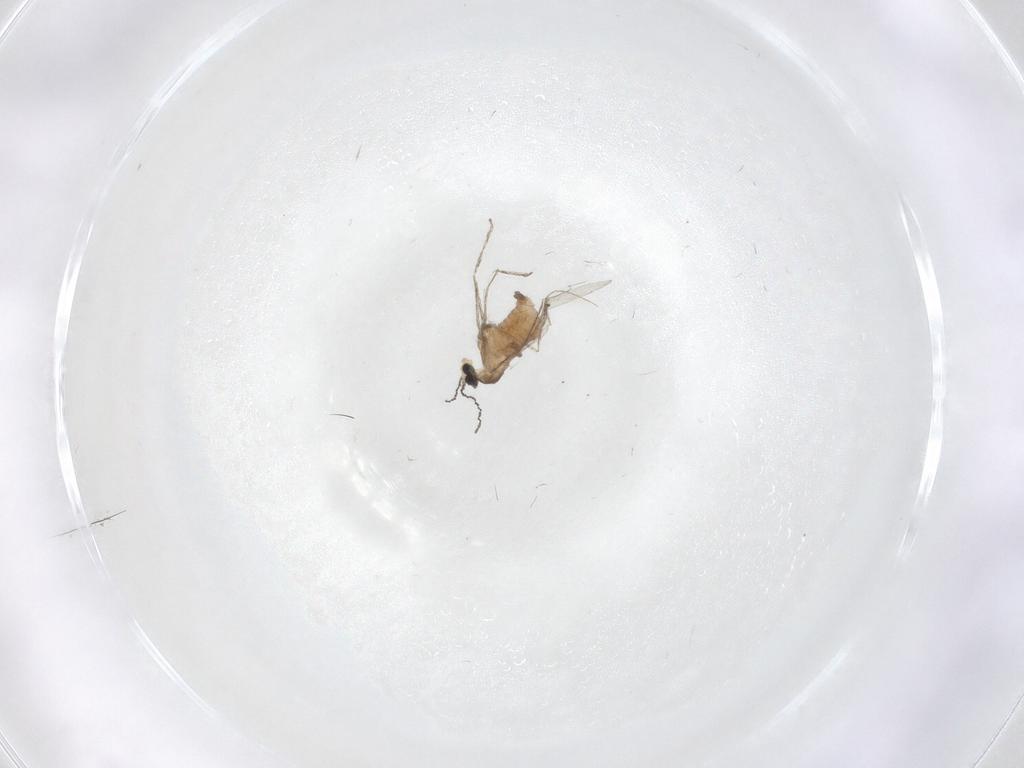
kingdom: Animalia
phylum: Arthropoda
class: Insecta
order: Diptera
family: Cecidomyiidae
